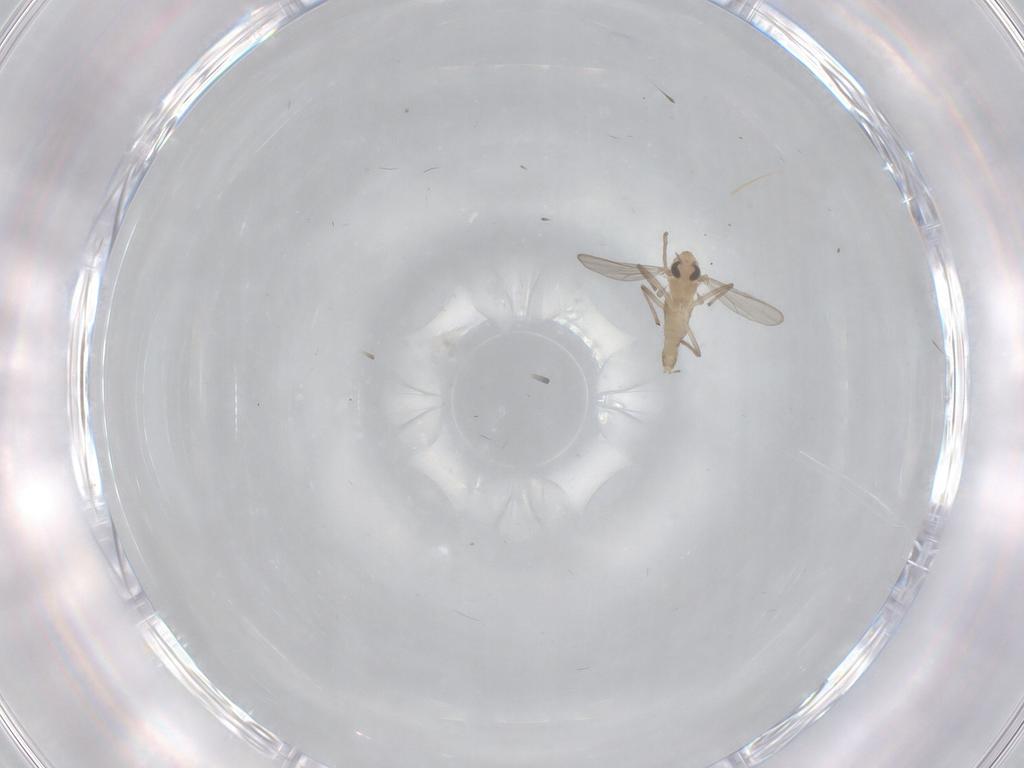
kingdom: Animalia
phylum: Arthropoda
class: Insecta
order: Diptera
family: Chironomidae
